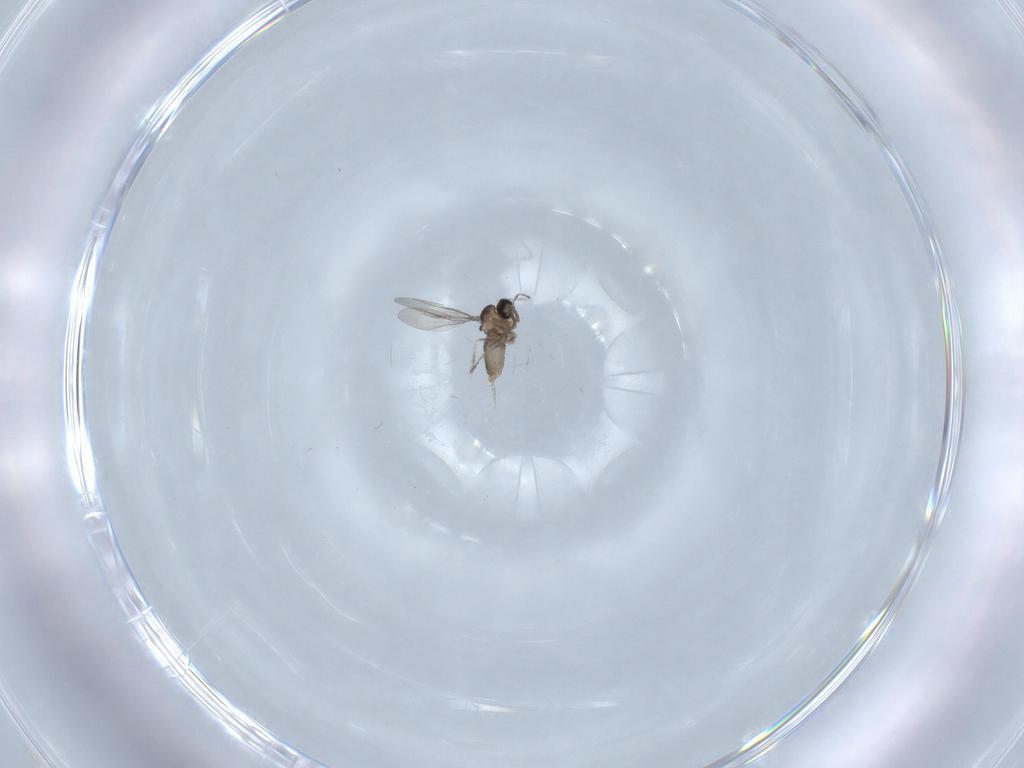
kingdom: Animalia
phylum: Arthropoda
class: Insecta
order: Diptera
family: Cecidomyiidae
